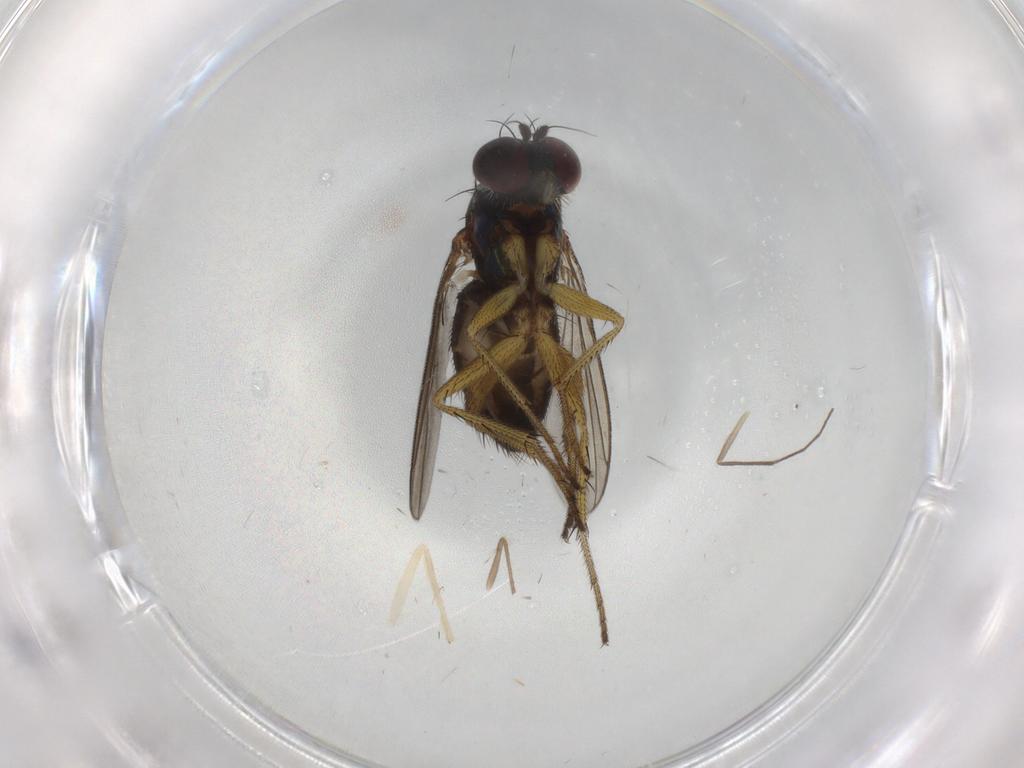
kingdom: Animalia
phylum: Arthropoda
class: Insecta
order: Diptera
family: Dolichopodidae
